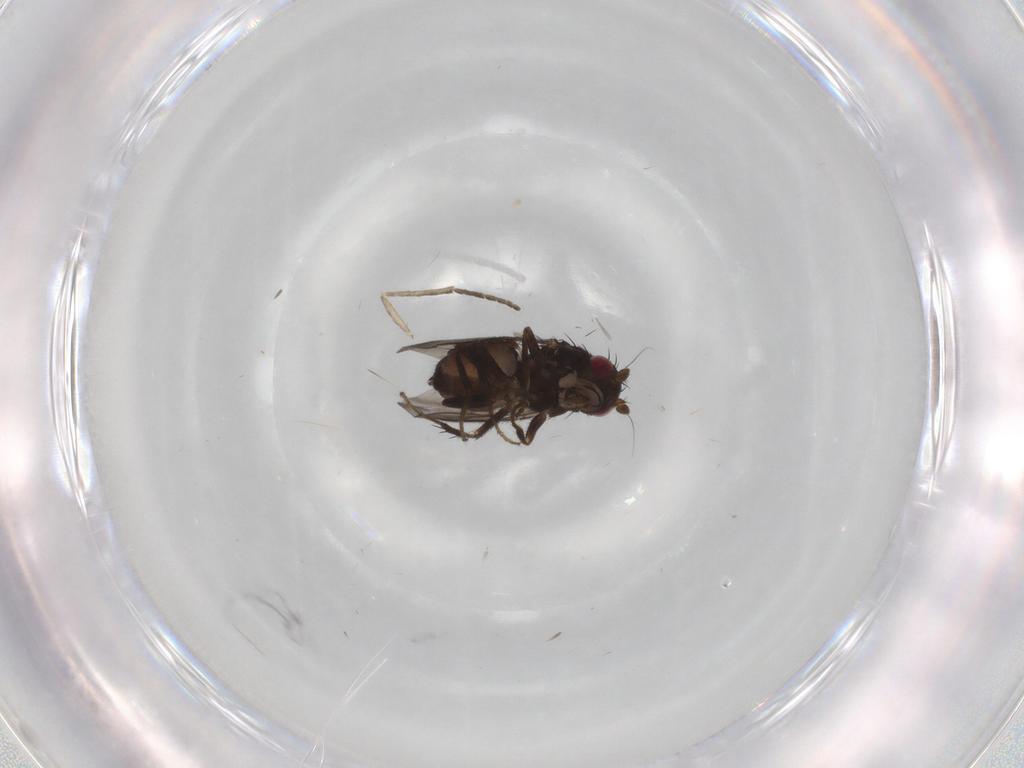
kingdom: Animalia
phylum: Arthropoda
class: Insecta
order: Diptera
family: Sphaeroceridae
